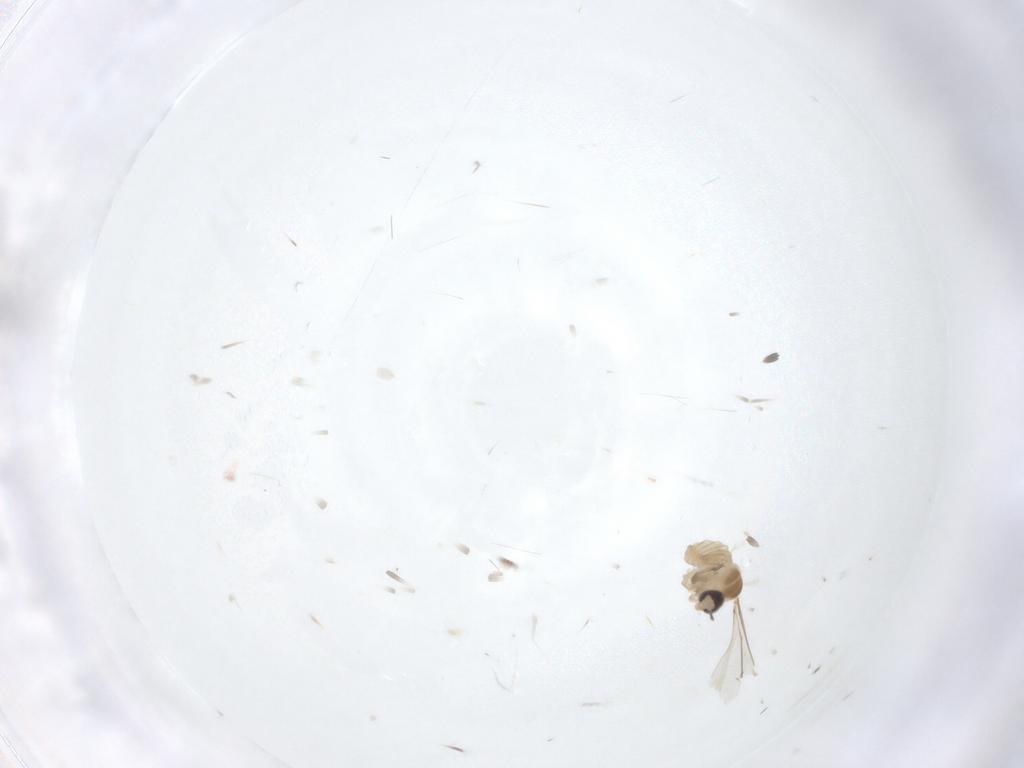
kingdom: Animalia
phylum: Arthropoda
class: Insecta
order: Diptera
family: Cecidomyiidae
